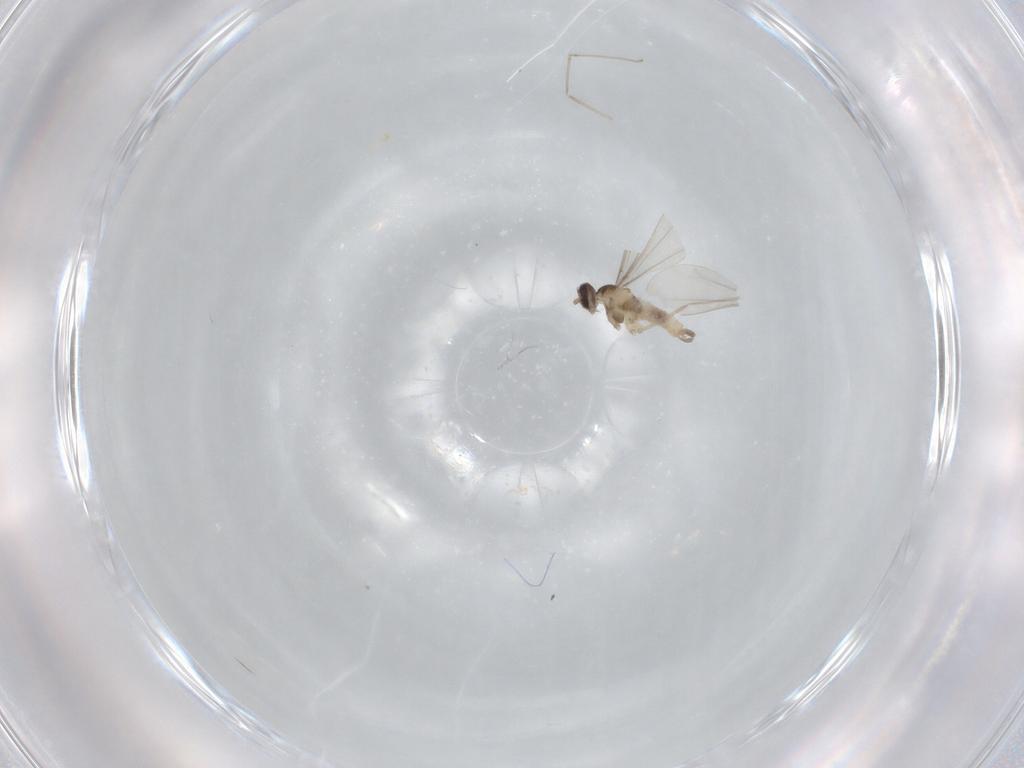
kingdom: Animalia
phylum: Arthropoda
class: Insecta
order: Diptera
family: Cecidomyiidae
